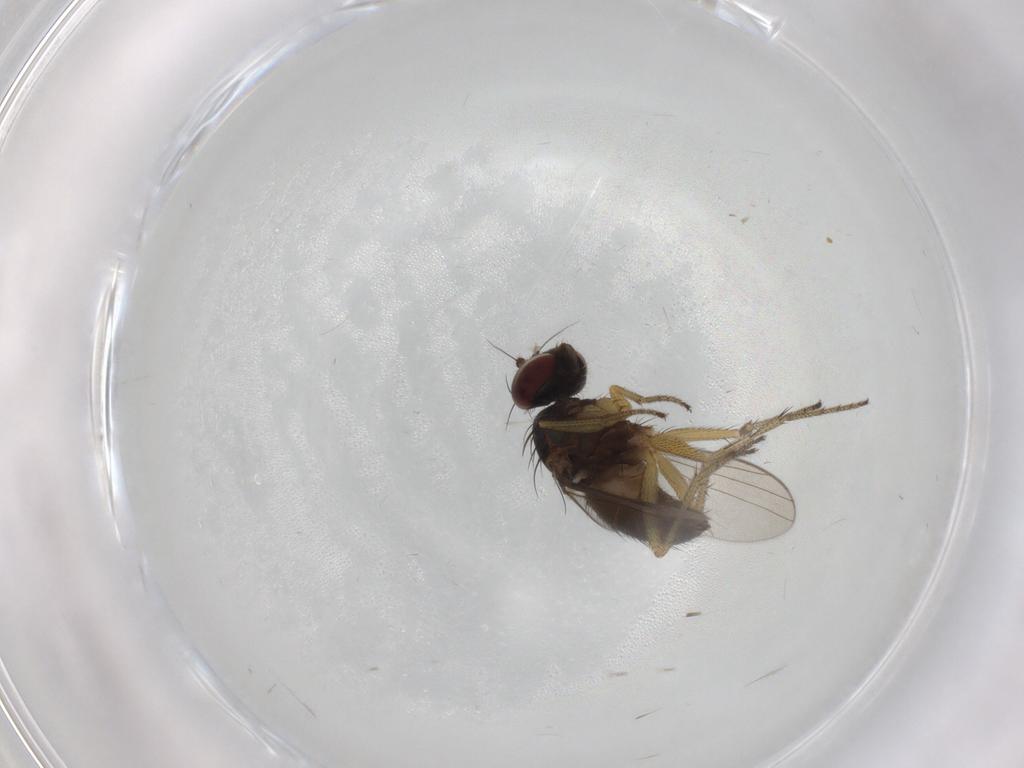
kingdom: Animalia
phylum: Arthropoda
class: Insecta
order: Diptera
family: Dolichopodidae
